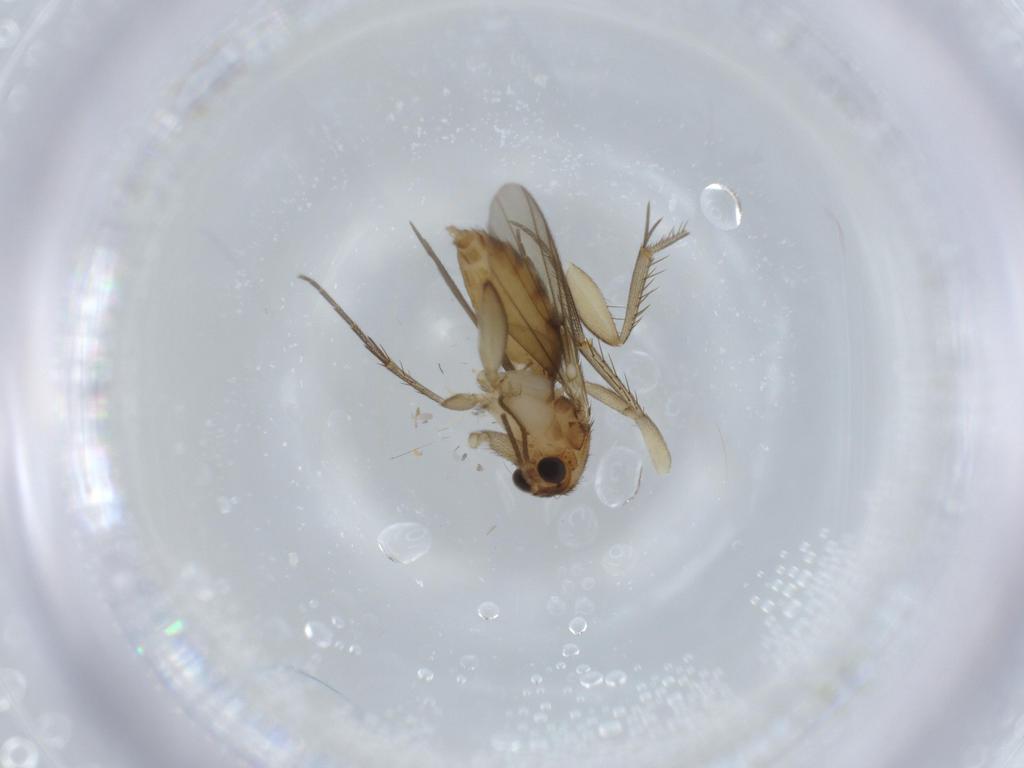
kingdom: Animalia
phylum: Arthropoda
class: Insecta
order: Diptera
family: Cecidomyiidae
